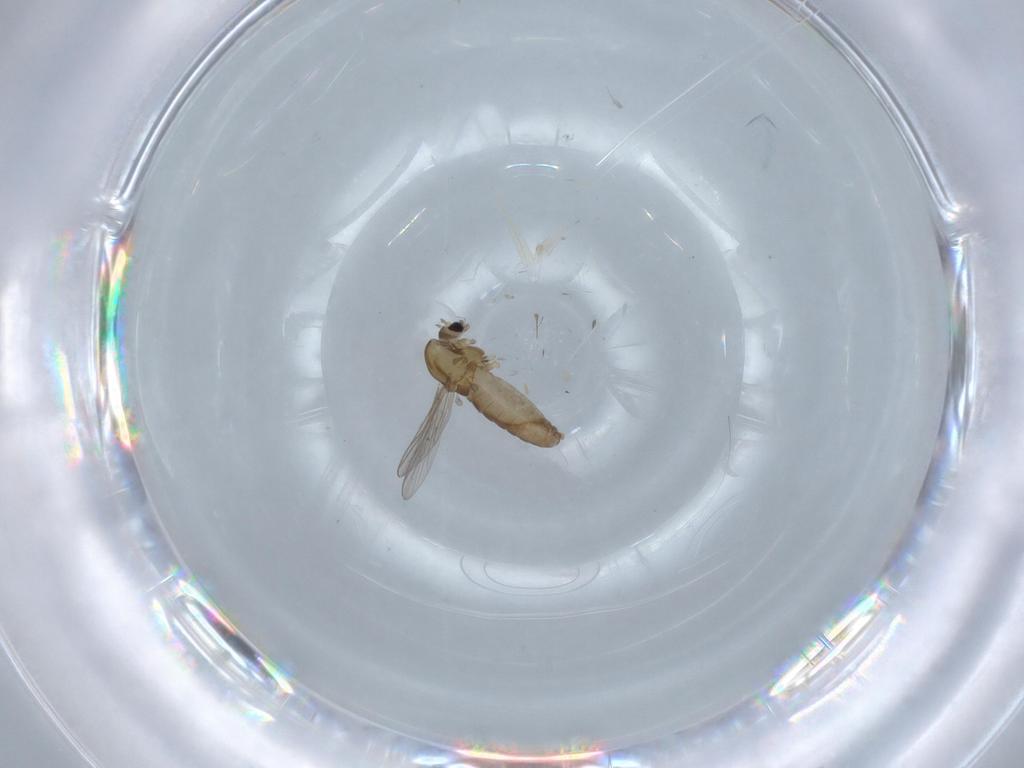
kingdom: Animalia
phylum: Arthropoda
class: Insecta
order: Diptera
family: Chironomidae
